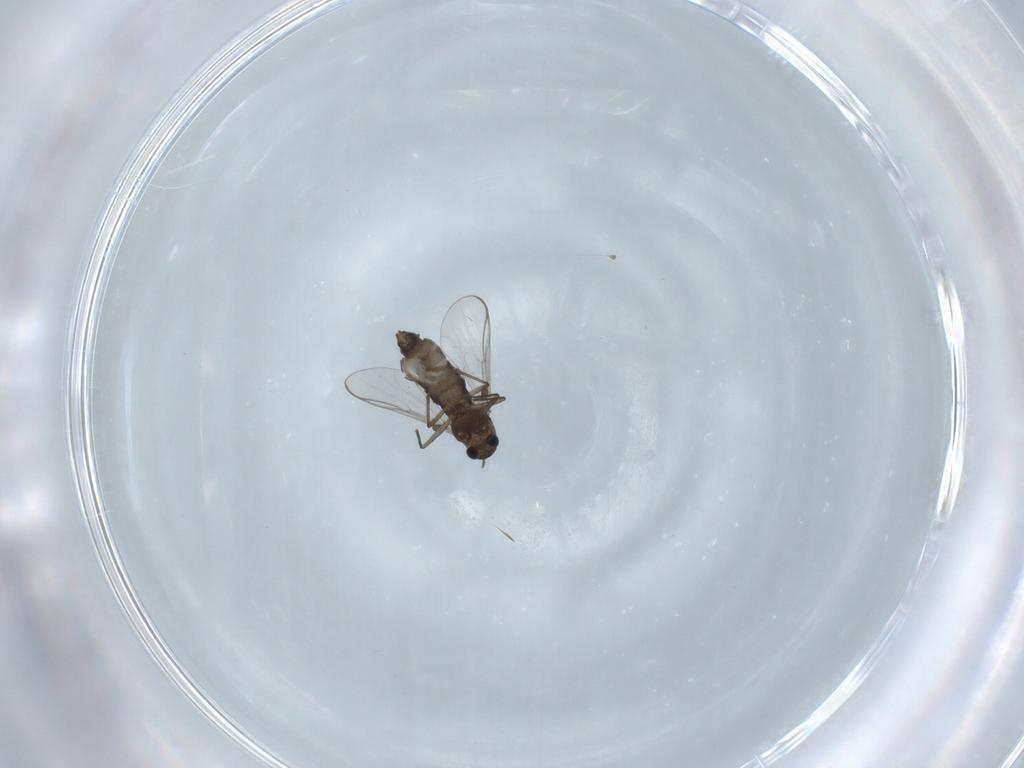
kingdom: Animalia
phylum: Arthropoda
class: Insecta
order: Diptera
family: Chironomidae
